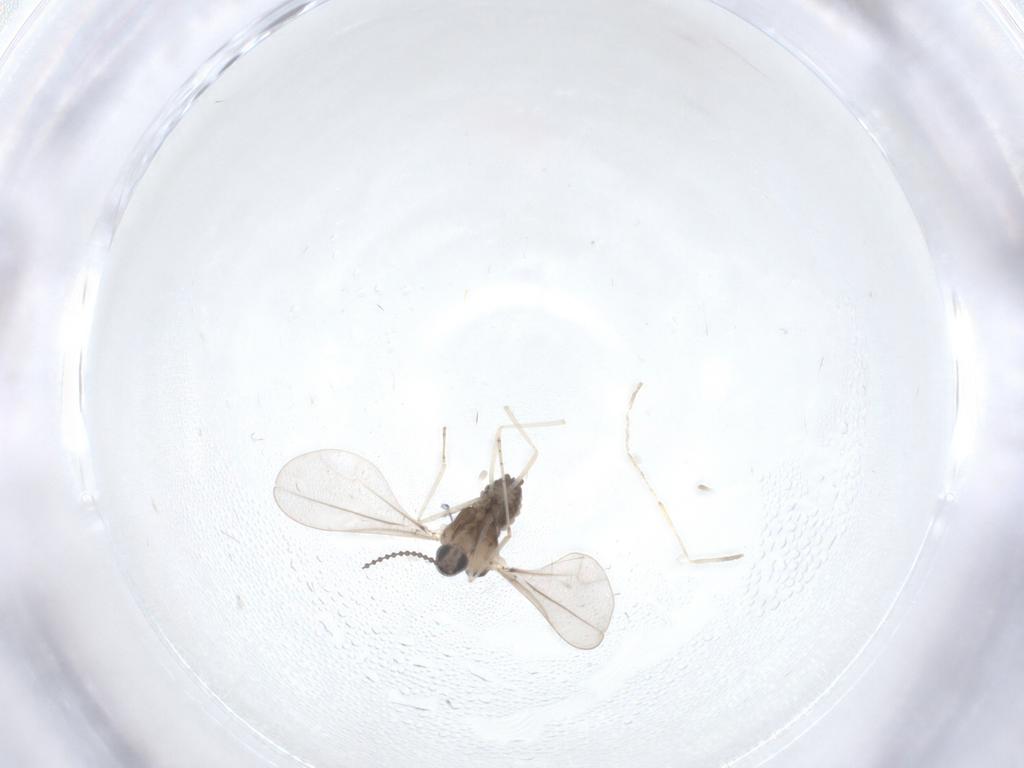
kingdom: Animalia
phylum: Arthropoda
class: Insecta
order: Diptera
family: Cecidomyiidae
